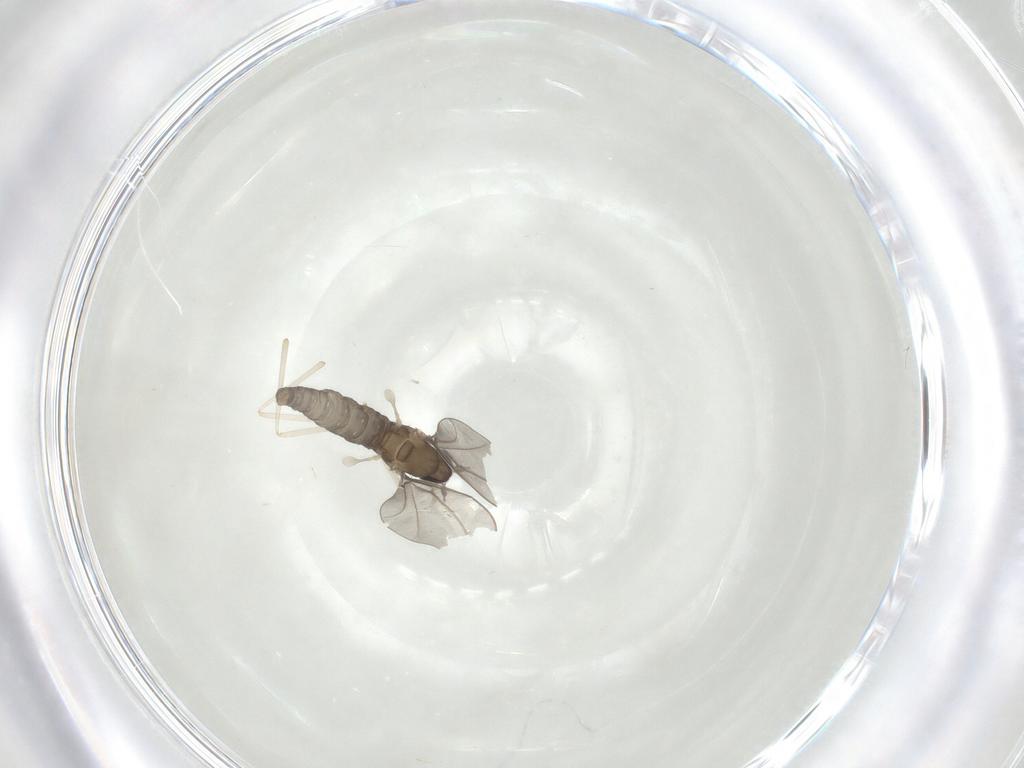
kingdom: Animalia
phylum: Arthropoda
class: Insecta
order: Diptera
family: Cecidomyiidae
